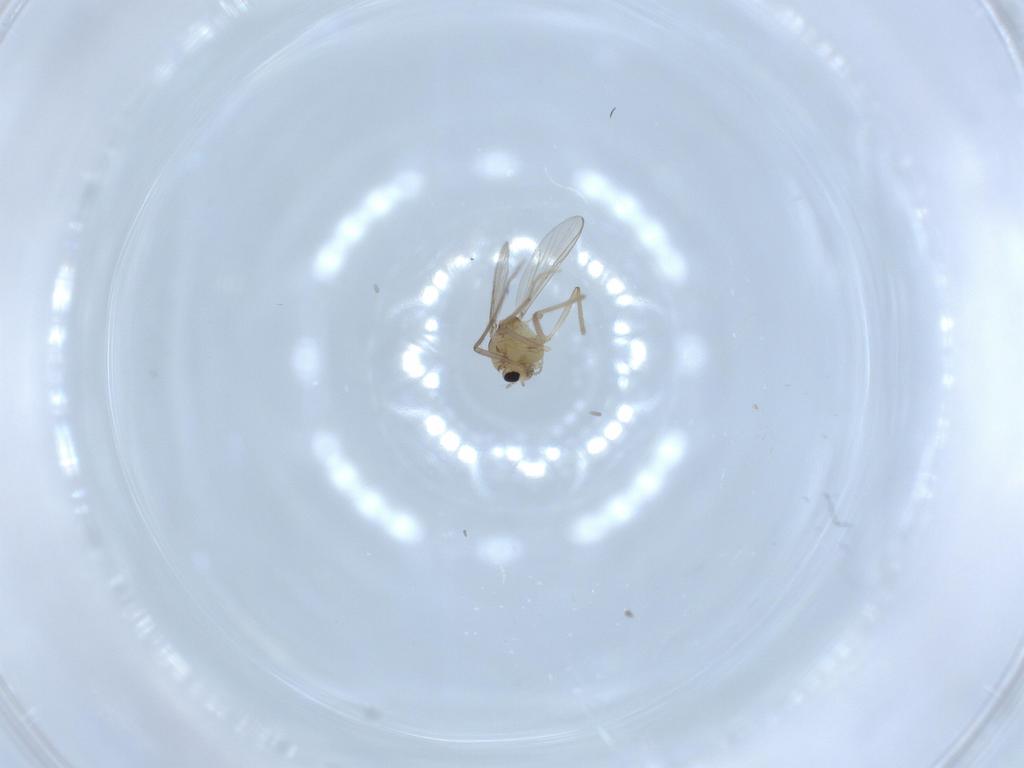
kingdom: Animalia
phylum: Arthropoda
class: Insecta
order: Diptera
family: Chironomidae
